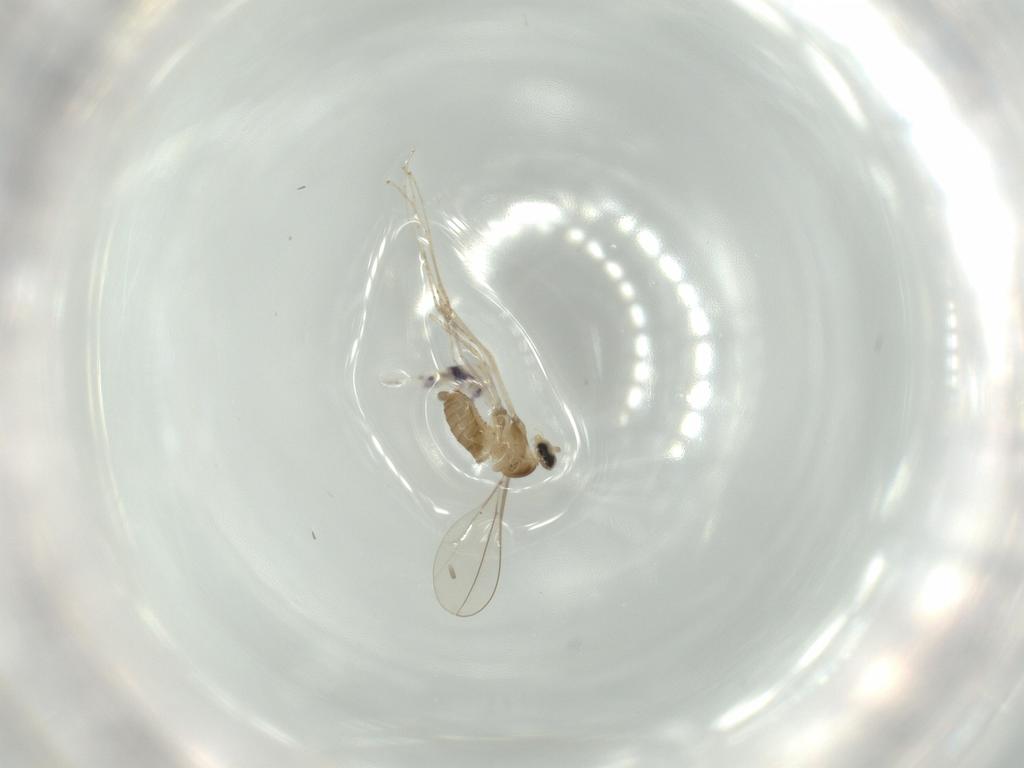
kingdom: Animalia
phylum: Arthropoda
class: Insecta
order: Diptera
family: Cecidomyiidae
